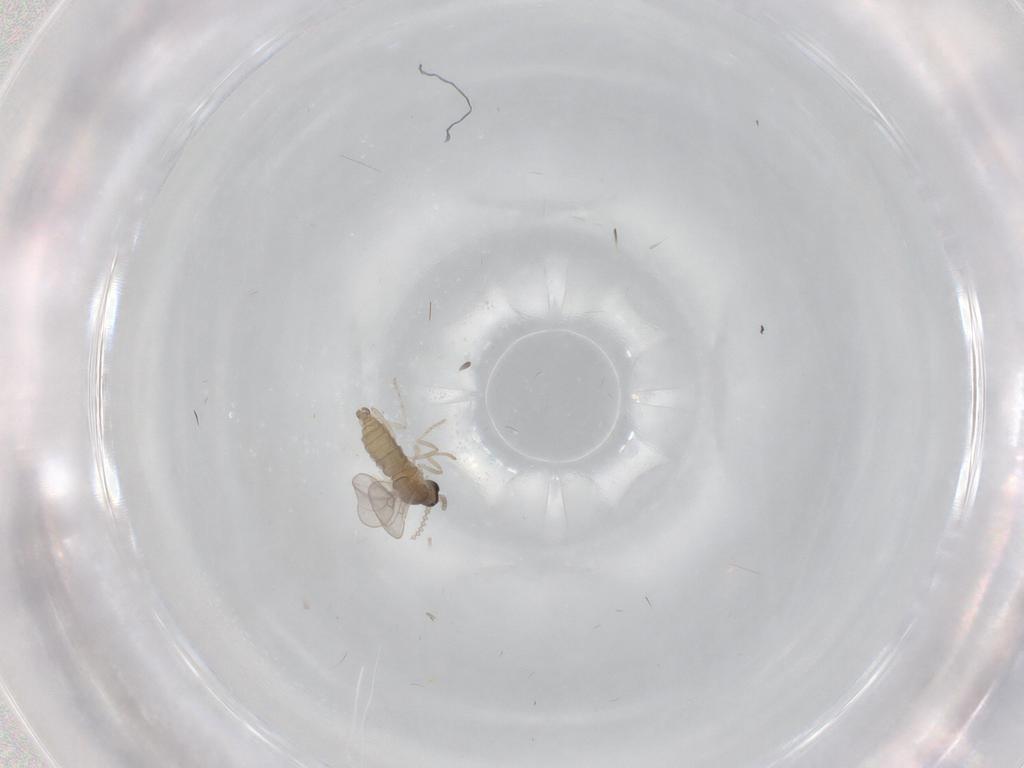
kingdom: Animalia
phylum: Arthropoda
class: Insecta
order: Diptera
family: Cecidomyiidae
